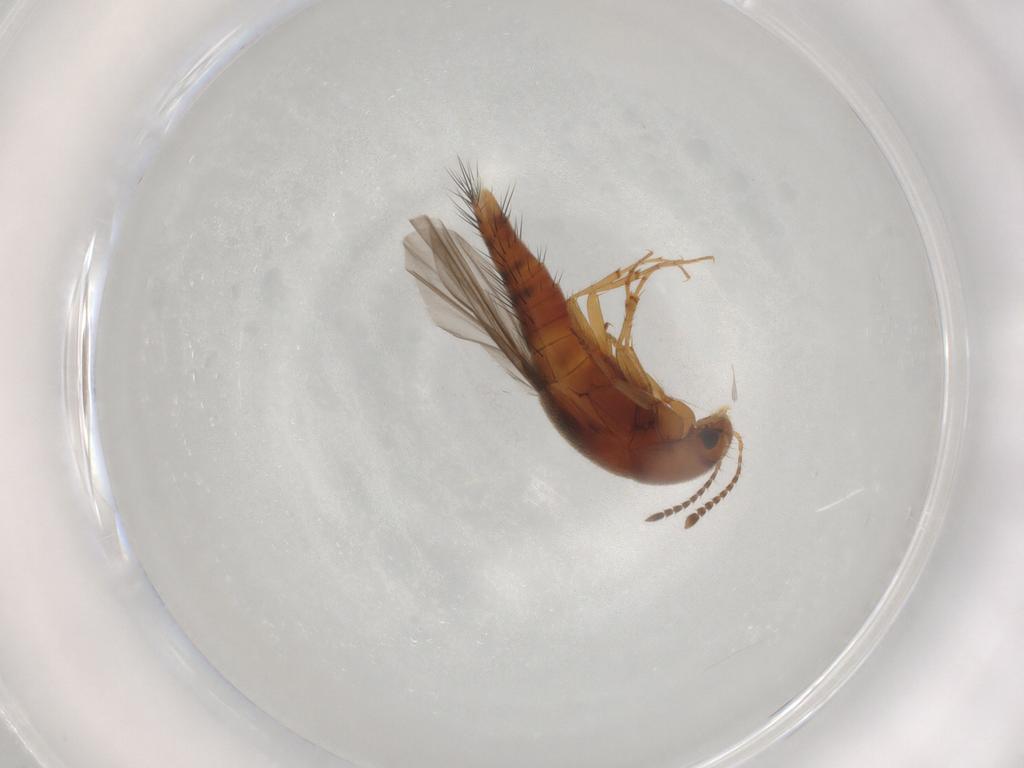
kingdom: Animalia
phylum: Arthropoda
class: Insecta
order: Coleoptera
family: Staphylinidae
